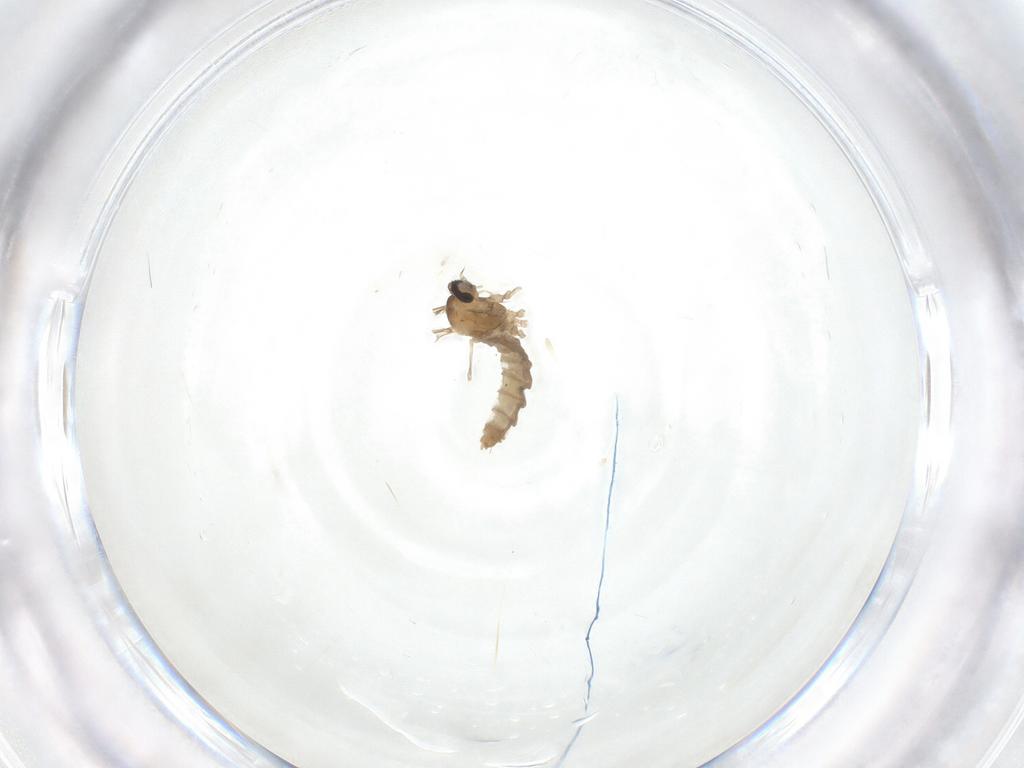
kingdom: Animalia
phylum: Arthropoda
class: Insecta
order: Diptera
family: Cecidomyiidae
